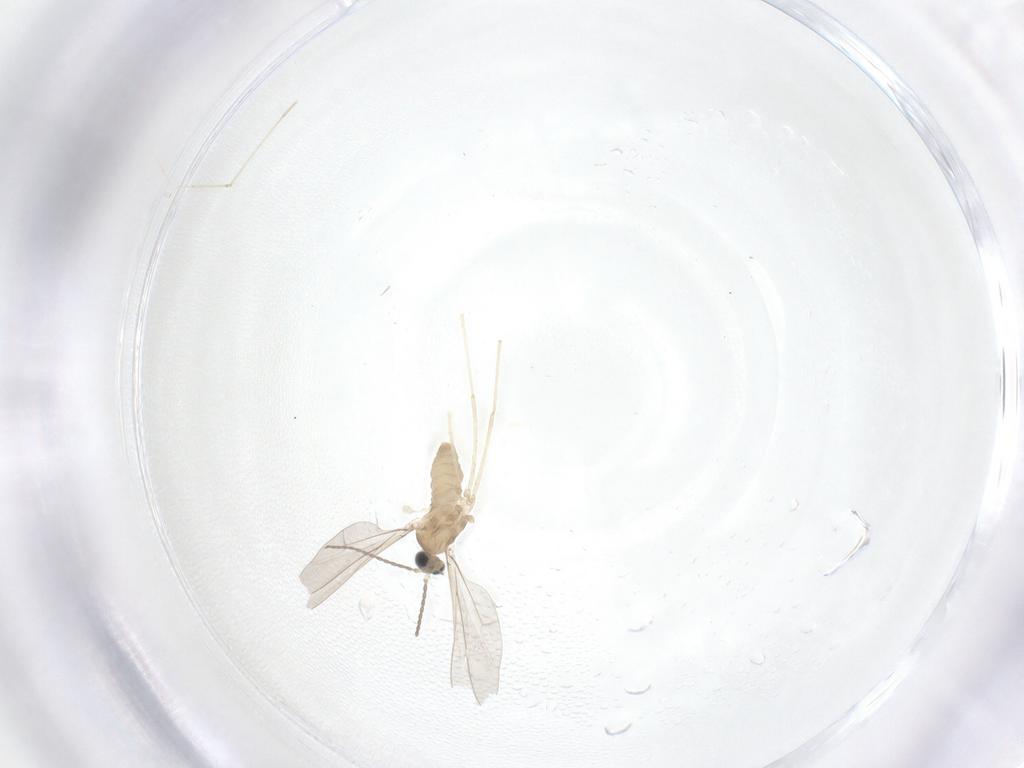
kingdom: Animalia
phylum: Arthropoda
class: Insecta
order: Diptera
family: Cecidomyiidae
